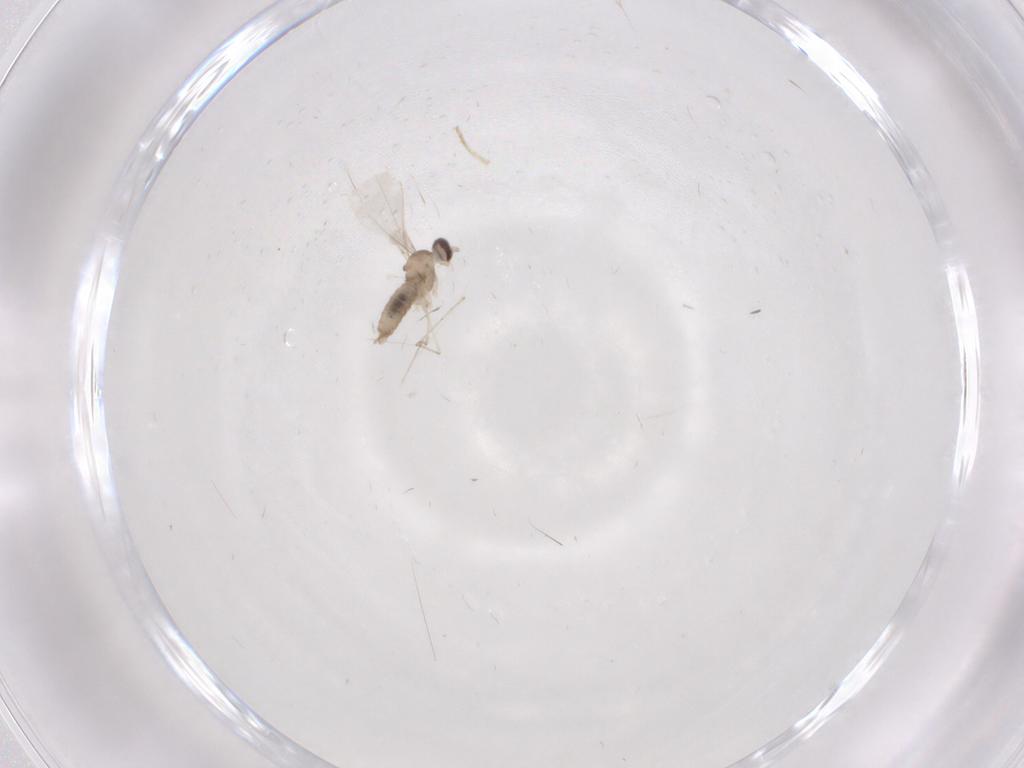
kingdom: Animalia
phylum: Arthropoda
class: Insecta
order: Diptera
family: Cecidomyiidae
